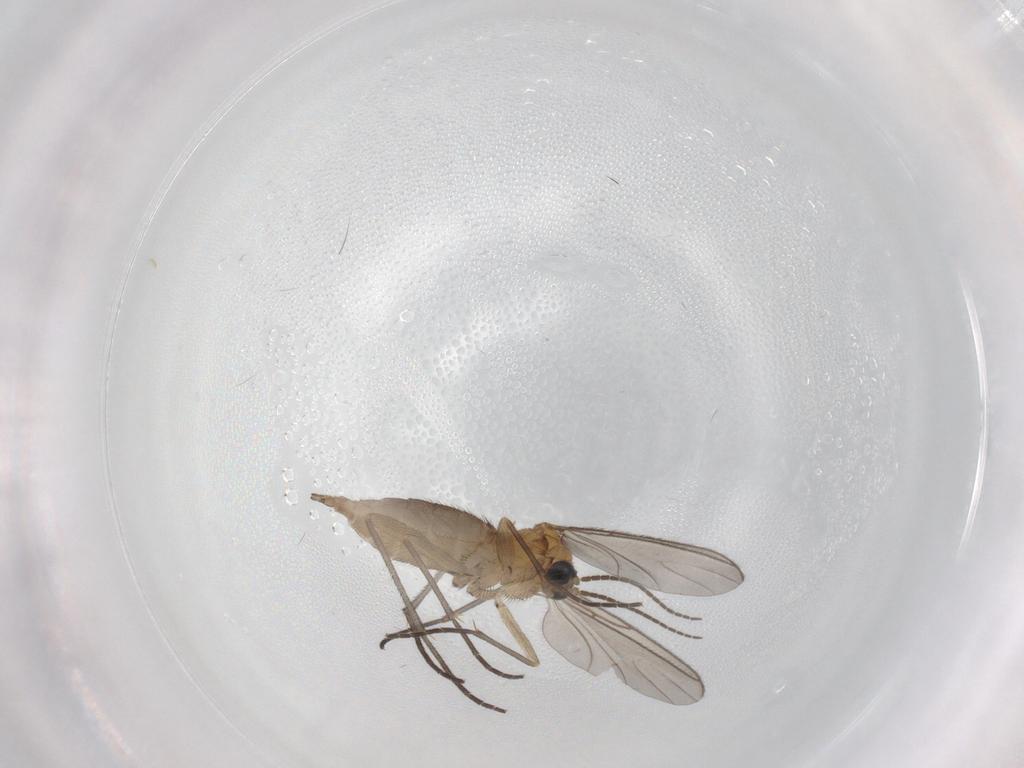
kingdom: Animalia
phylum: Arthropoda
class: Insecta
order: Diptera
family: Sciaridae
